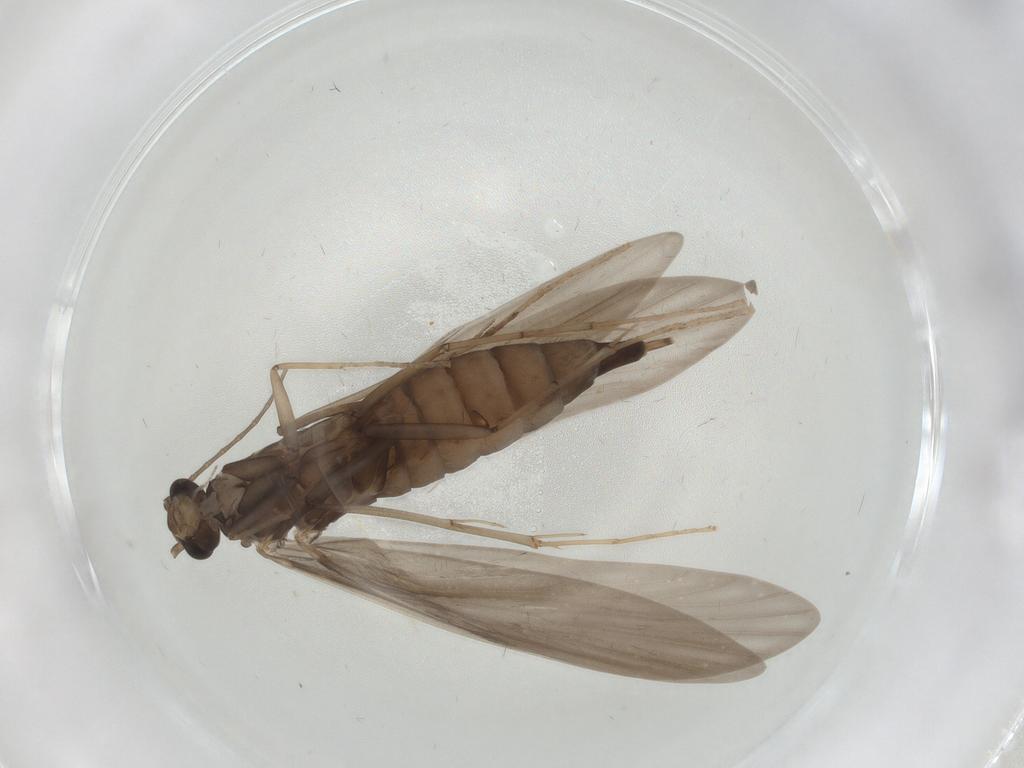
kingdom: Animalia
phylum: Arthropoda
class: Insecta
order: Trichoptera
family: Xiphocentronidae
